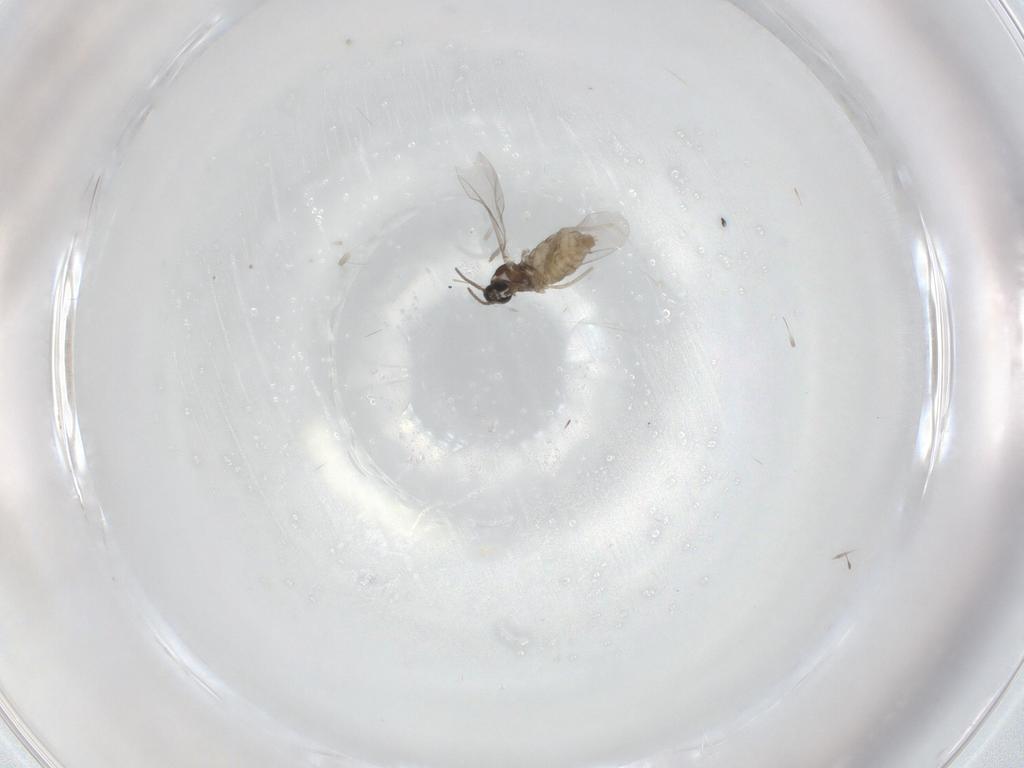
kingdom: Animalia
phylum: Arthropoda
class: Insecta
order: Diptera
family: Cecidomyiidae
